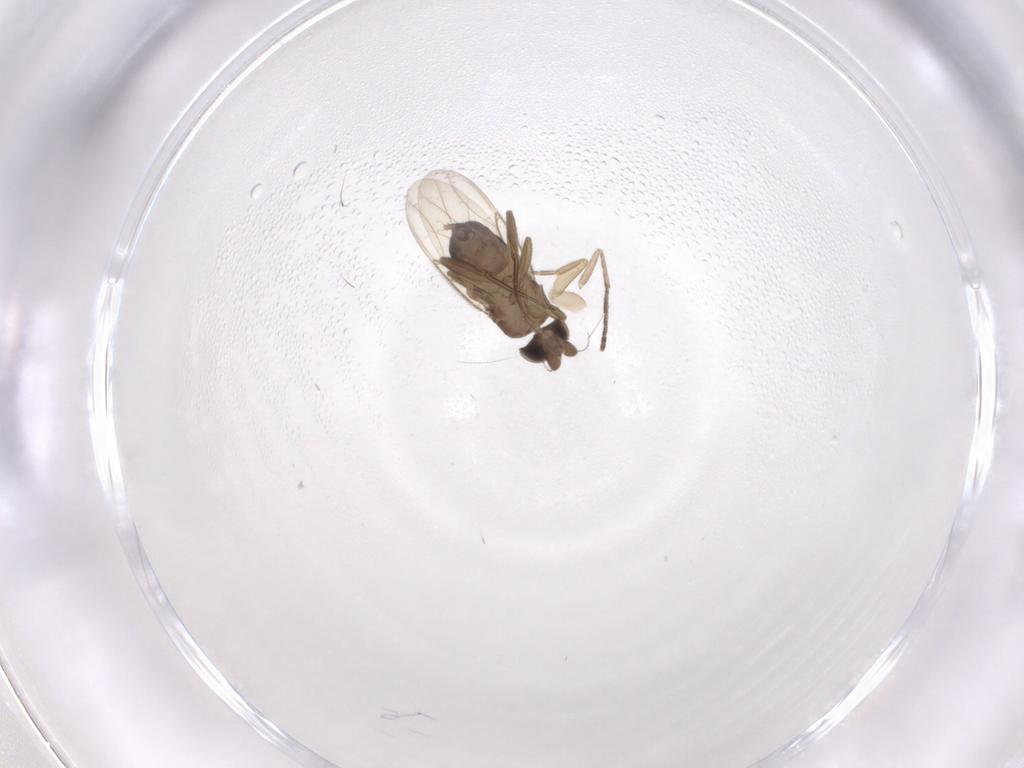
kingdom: Animalia
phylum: Arthropoda
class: Insecta
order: Diptera
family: Phoridae
